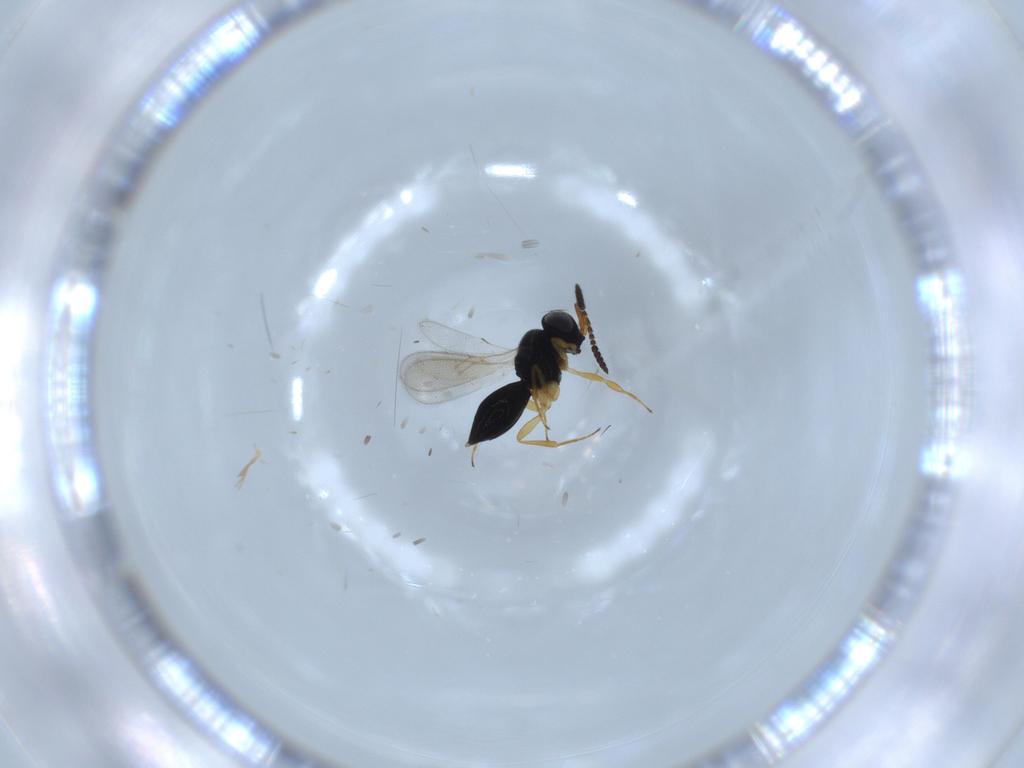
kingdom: Animalia
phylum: Arthropoda
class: Insecta
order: Hymenoptera
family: Scelionidae
